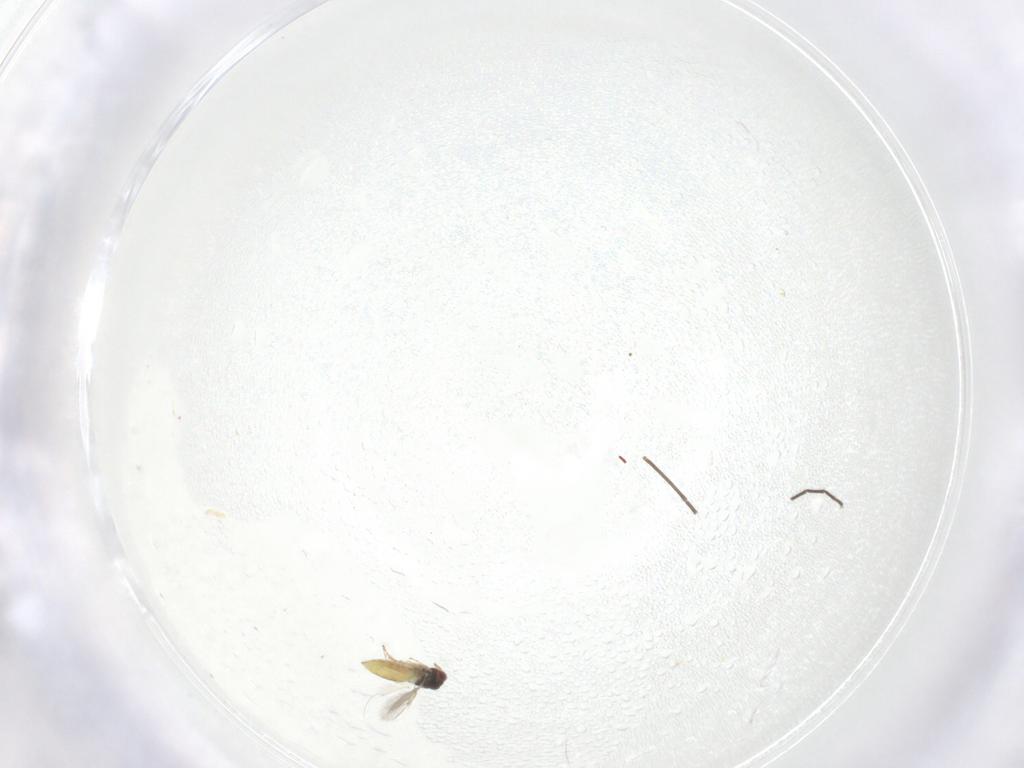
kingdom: Animalia
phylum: Arthropoda
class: Insecta
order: Hymenoptera
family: Trichogrammatidae
